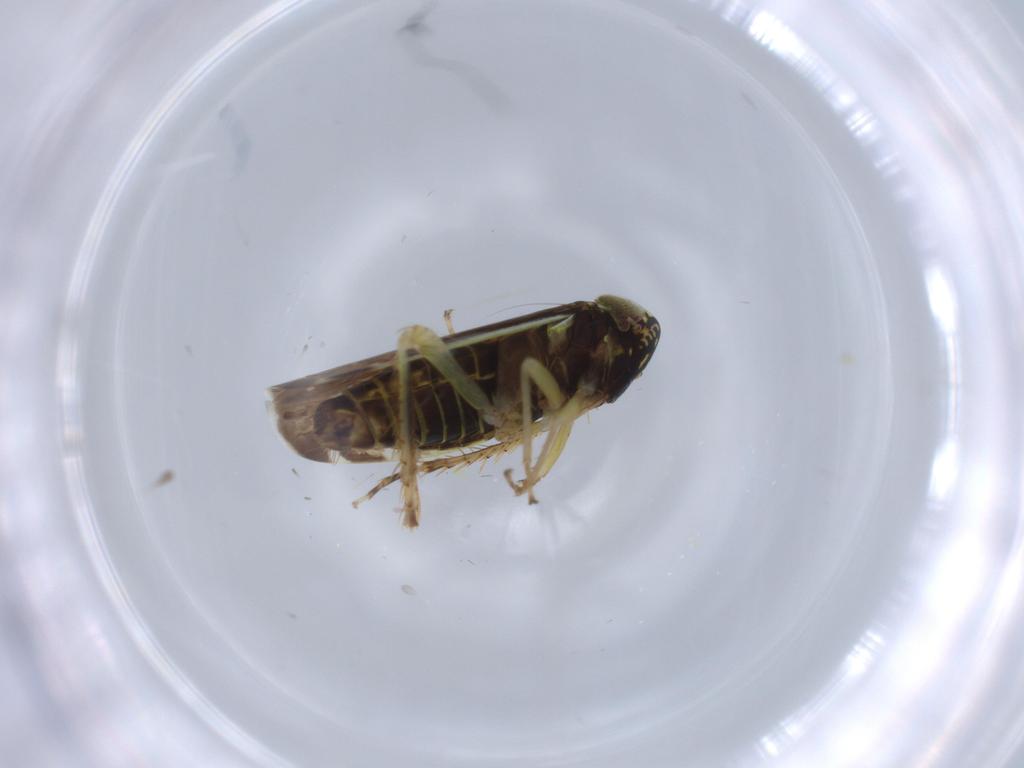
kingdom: Animalia
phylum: Arthropoda
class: Insecta
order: Hemiptera
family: Cicadellidae
